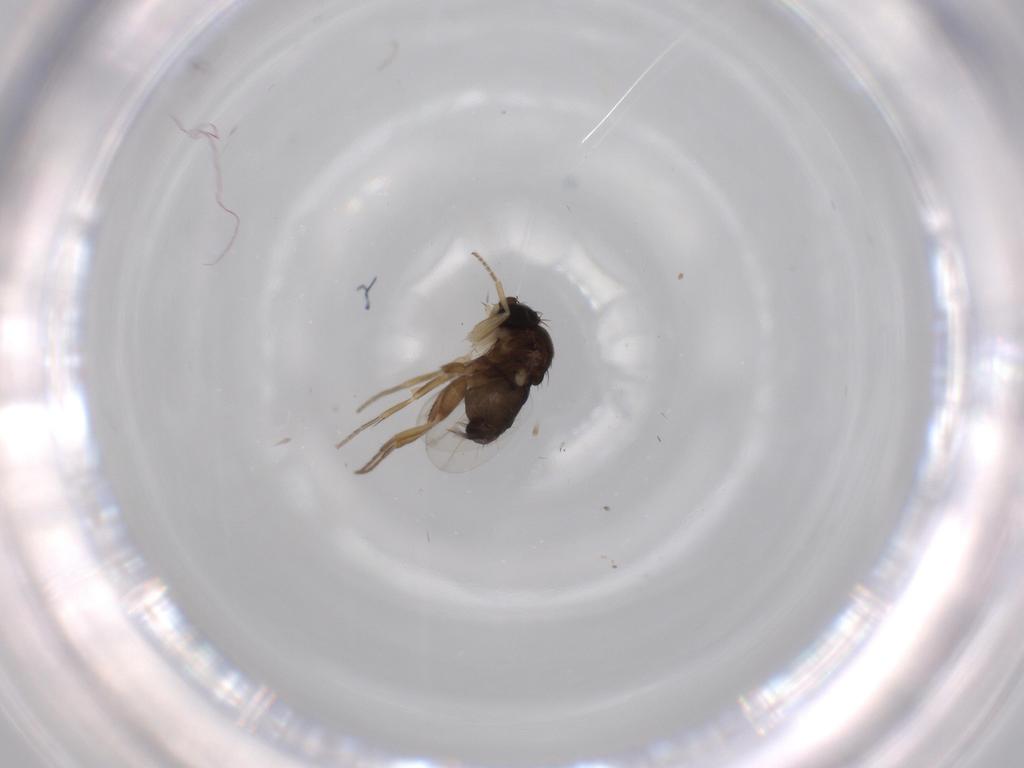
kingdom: Animalia
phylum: Arthropoda
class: Insecta
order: Diptera
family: Cecidomyiidae
